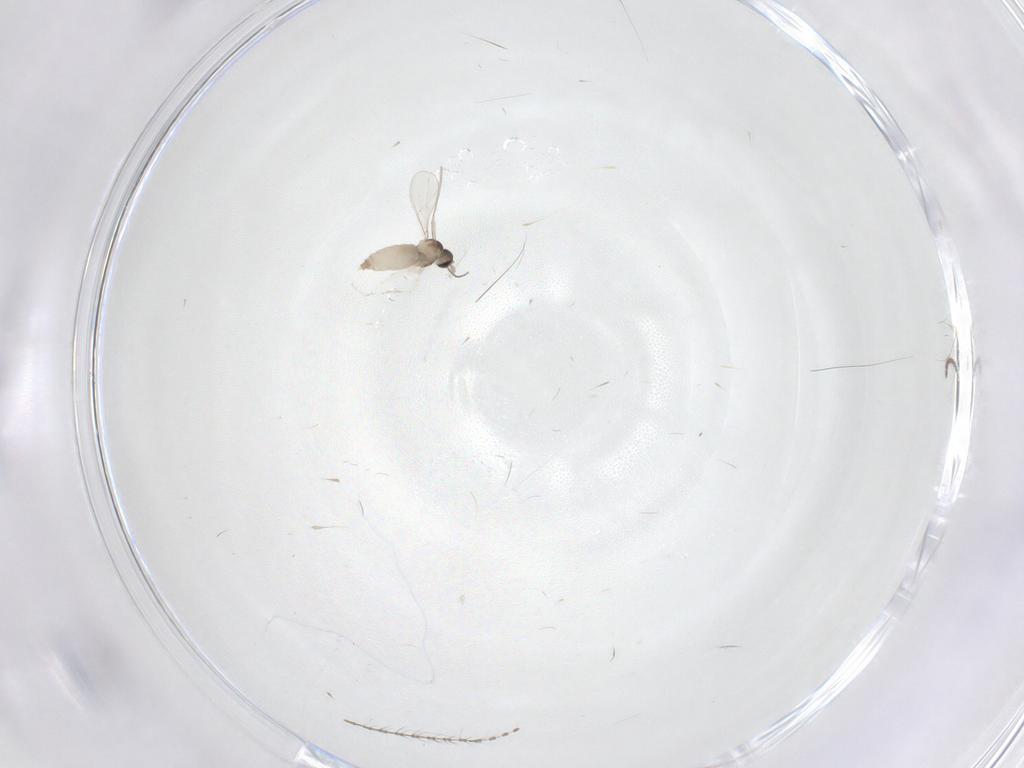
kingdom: Animalia
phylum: Arthropoda
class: Insecta
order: Diptera
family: Cecidomyiidae
